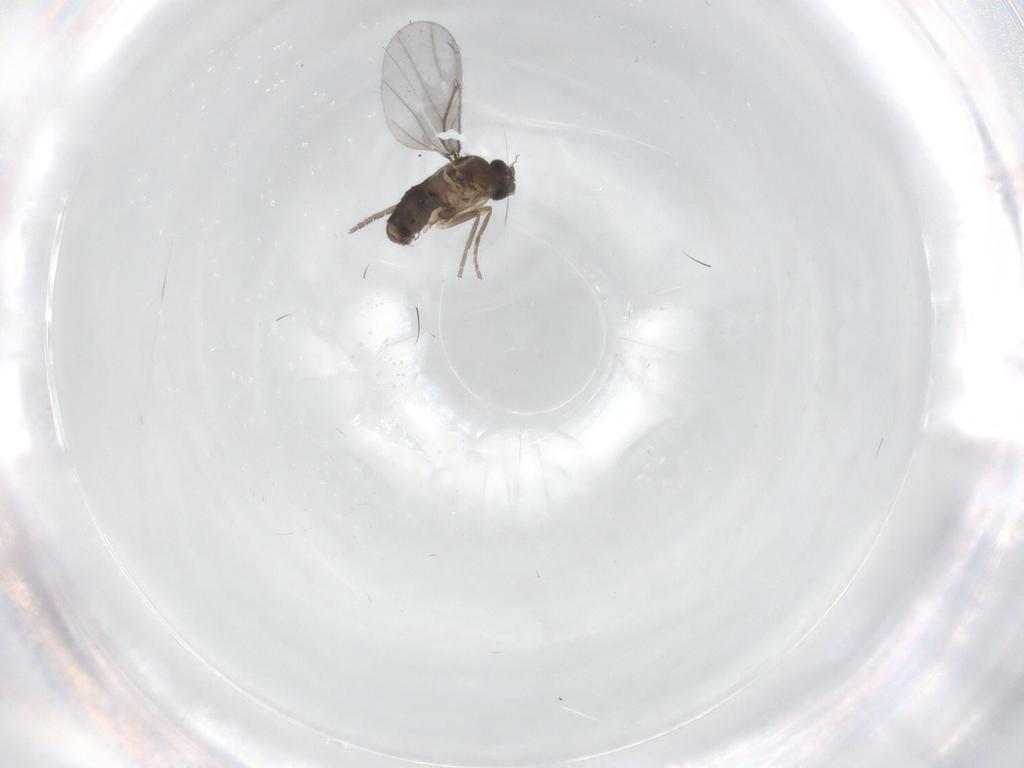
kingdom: Animalia
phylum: Arthropoda
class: Insecta
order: Diptera
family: Phoridae
